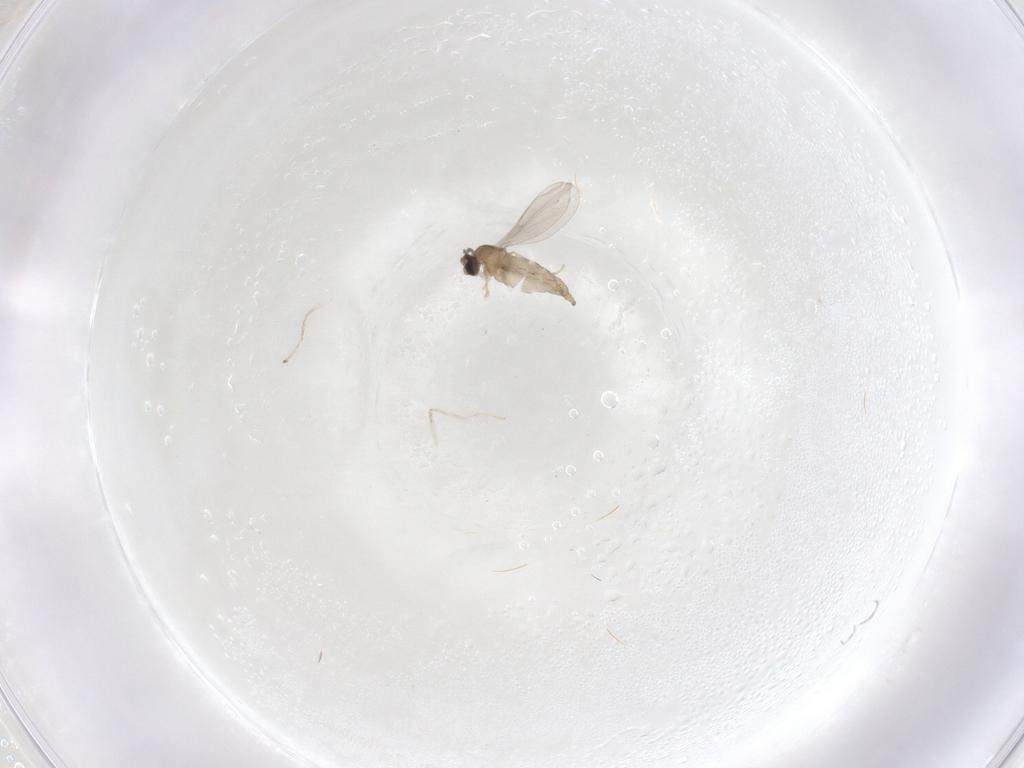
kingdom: Animalia
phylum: Arthropoda
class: Insecta
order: Diptera
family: Cecidomyiidae
